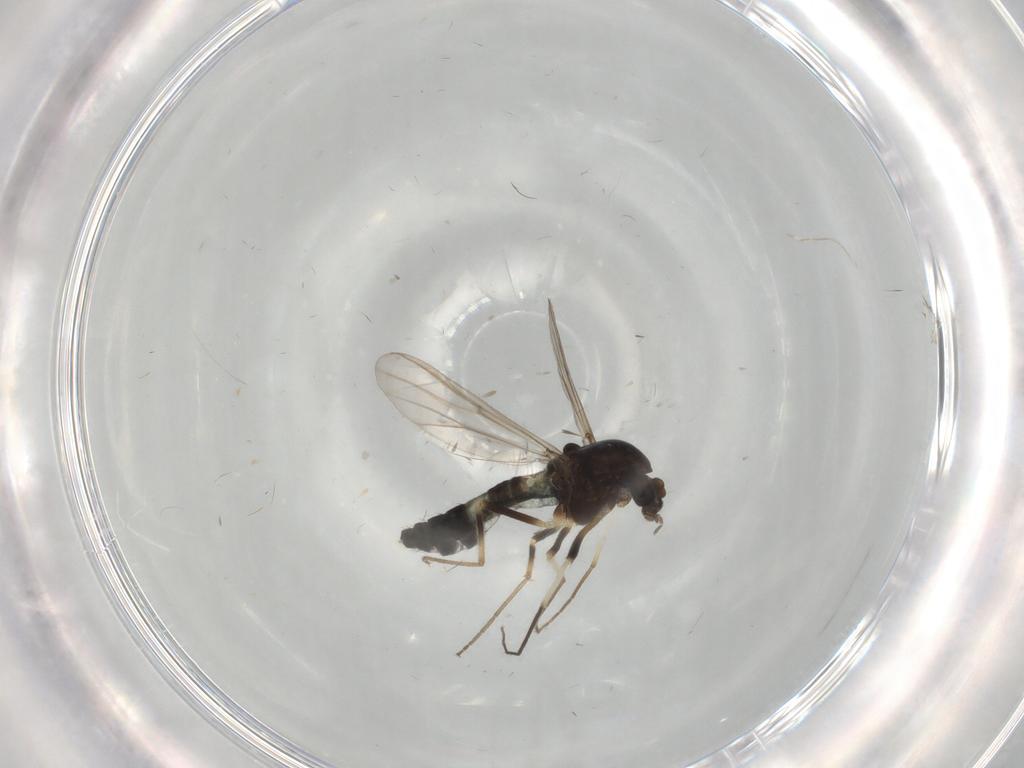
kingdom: Animalia
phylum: Arthropoda
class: Insecta
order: Diptera
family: Chironomidae
